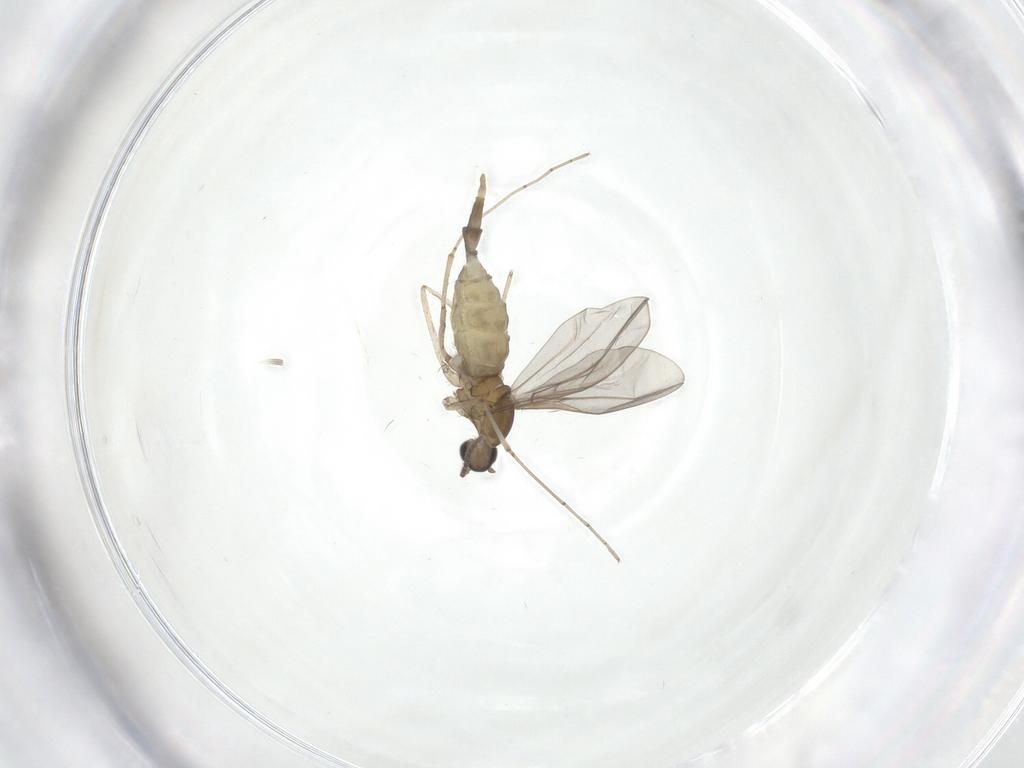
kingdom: Animalia
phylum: Arthropoda
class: Insecta
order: Diptera
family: Cecidomyiidae
